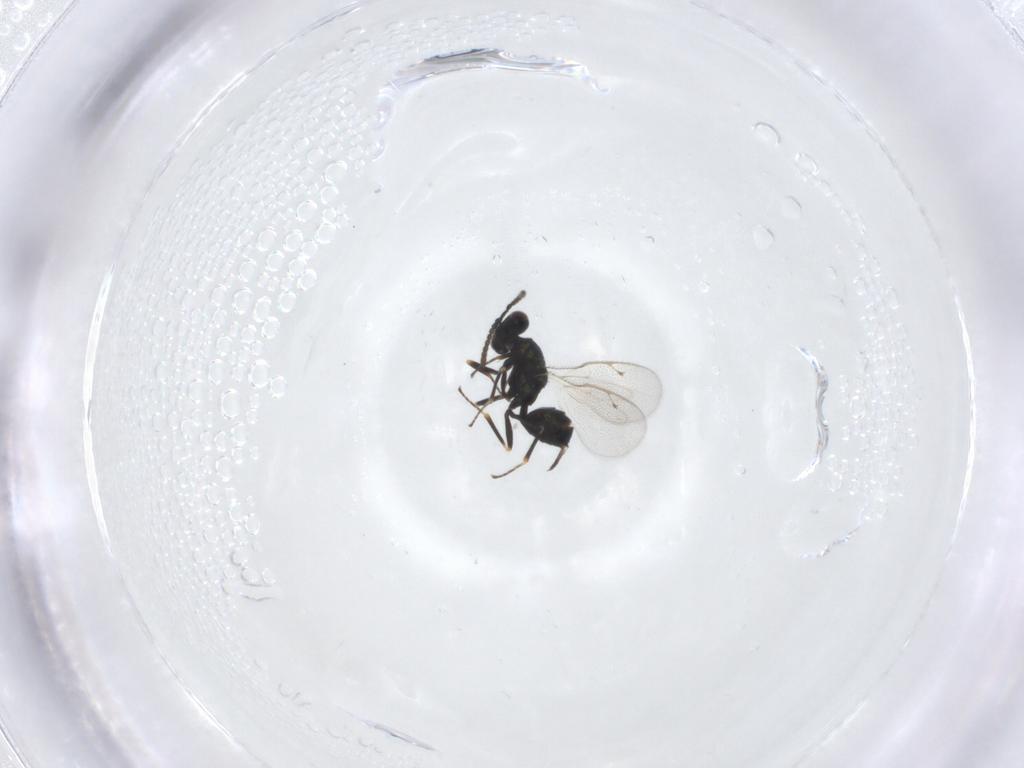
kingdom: Animalia
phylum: Arthropoda
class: Insecta
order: Hymenoptera
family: Pteromalidae
